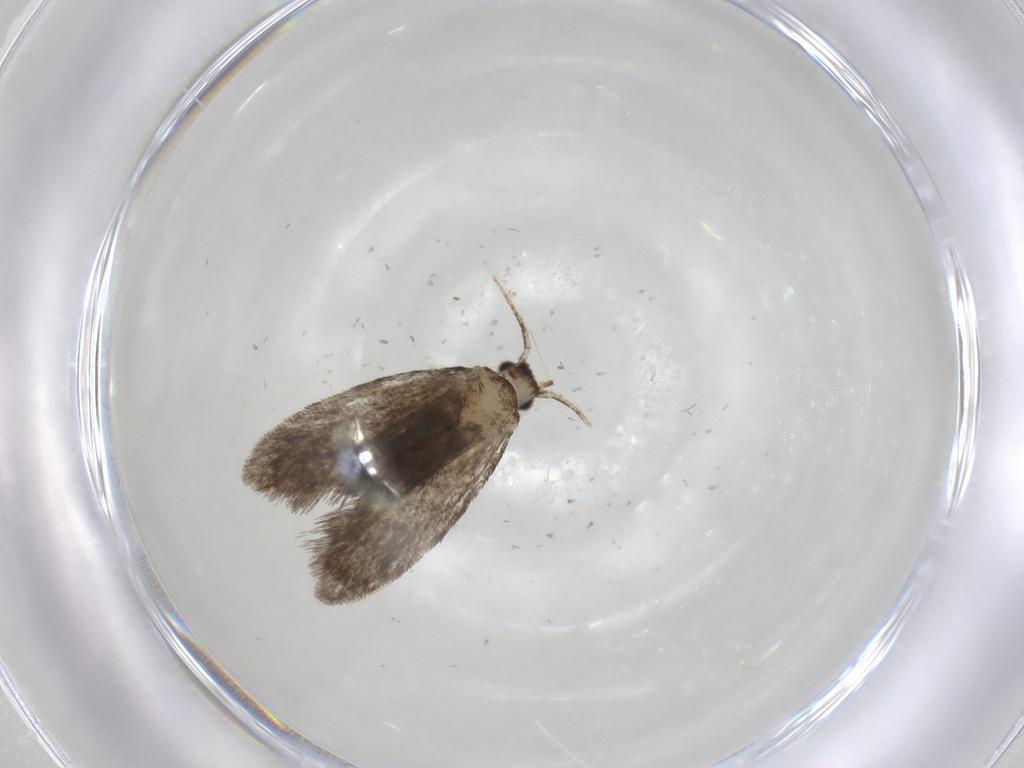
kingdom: Animalia
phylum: Arthropoda
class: Insecta
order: Lepidoptera
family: Psychidae
